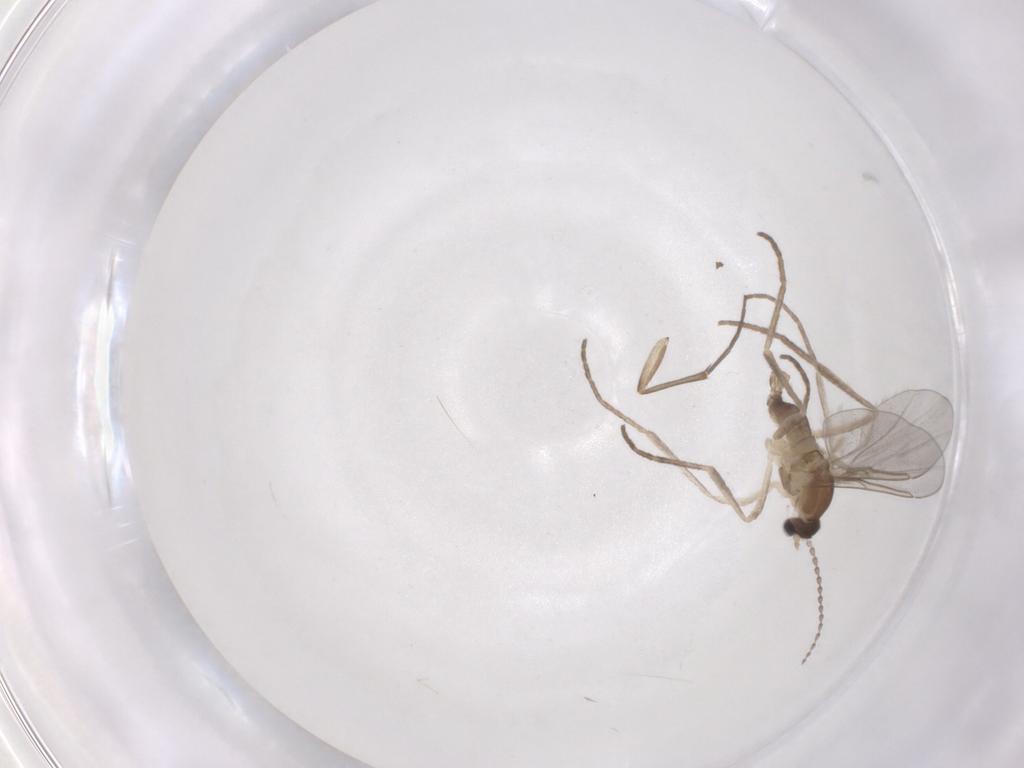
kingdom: Animalia
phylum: Arthropoda
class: Insecta
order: Diptera
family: Cecidomyiidae
